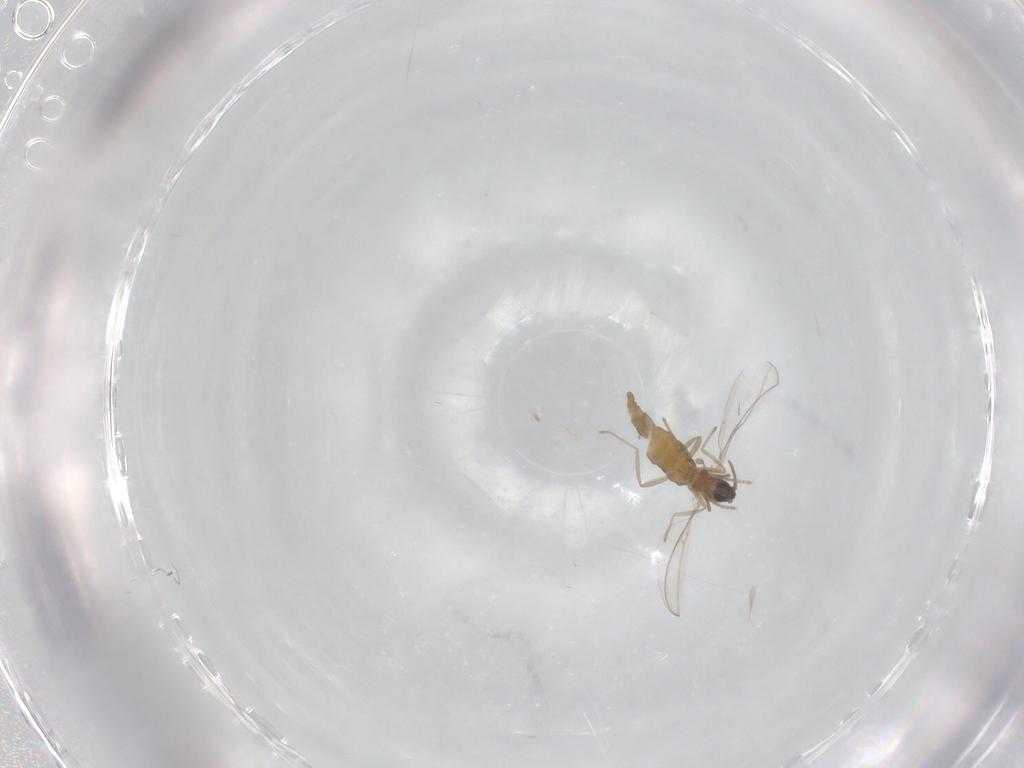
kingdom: Animalia
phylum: Arthropoda
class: Insecta
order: Diptera
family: Cecidomyiidae
